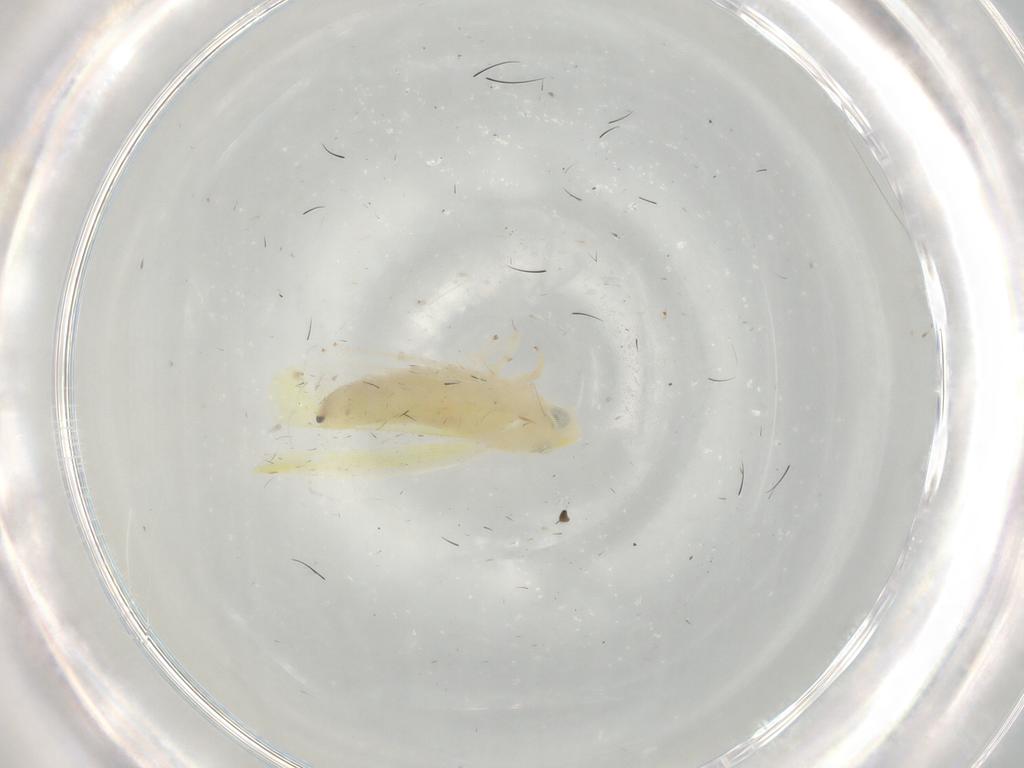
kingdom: Animalia
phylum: Arthropoda
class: Insecta
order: Hemiptera
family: Cicadellidae
